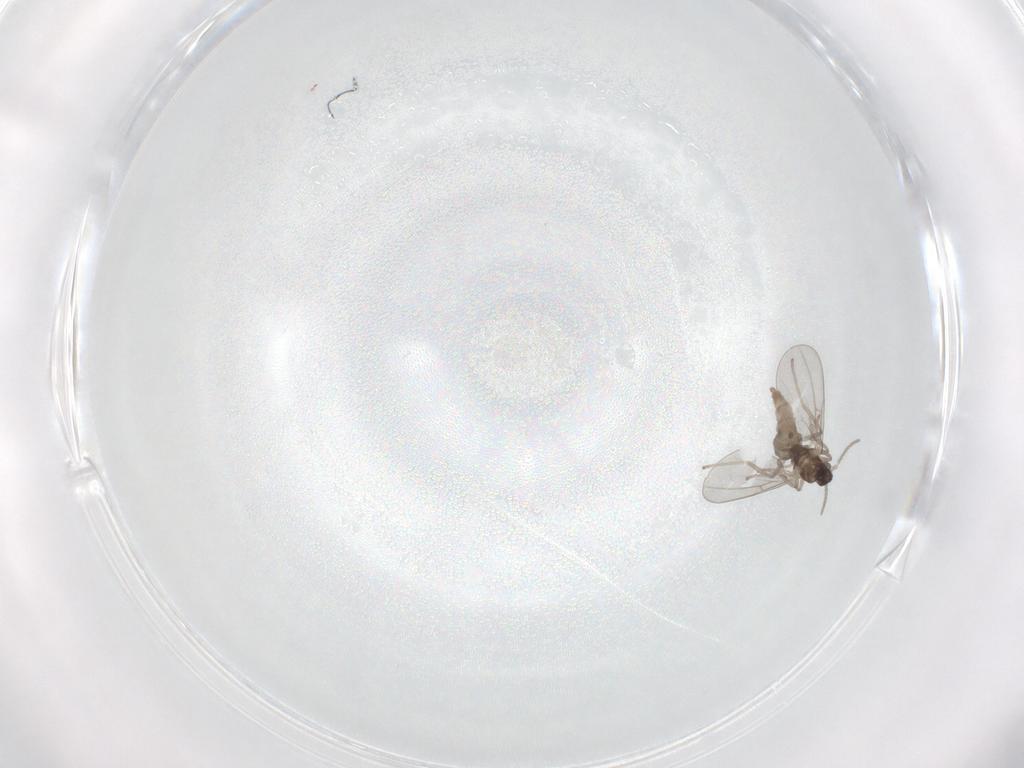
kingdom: Animalia
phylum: Arthropoda
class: Insecta
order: Diptera
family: Cecidomyiidae
